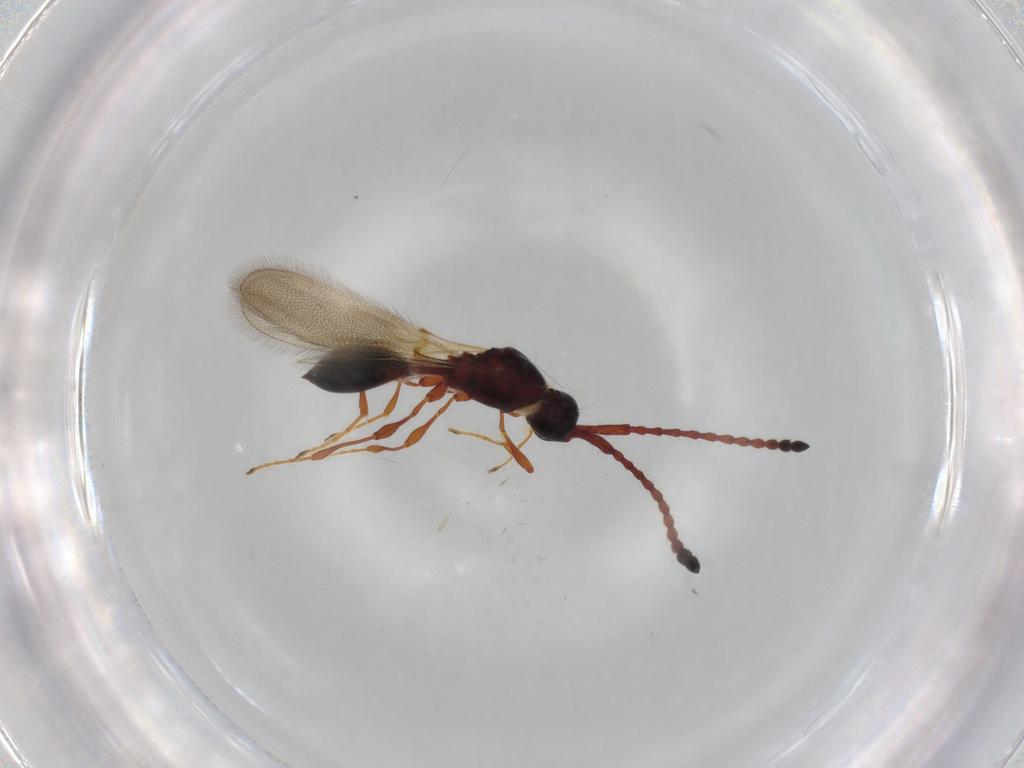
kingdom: Animalia
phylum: Arthropoda
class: Insecta
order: Hymenoptera
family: Diapriidae
